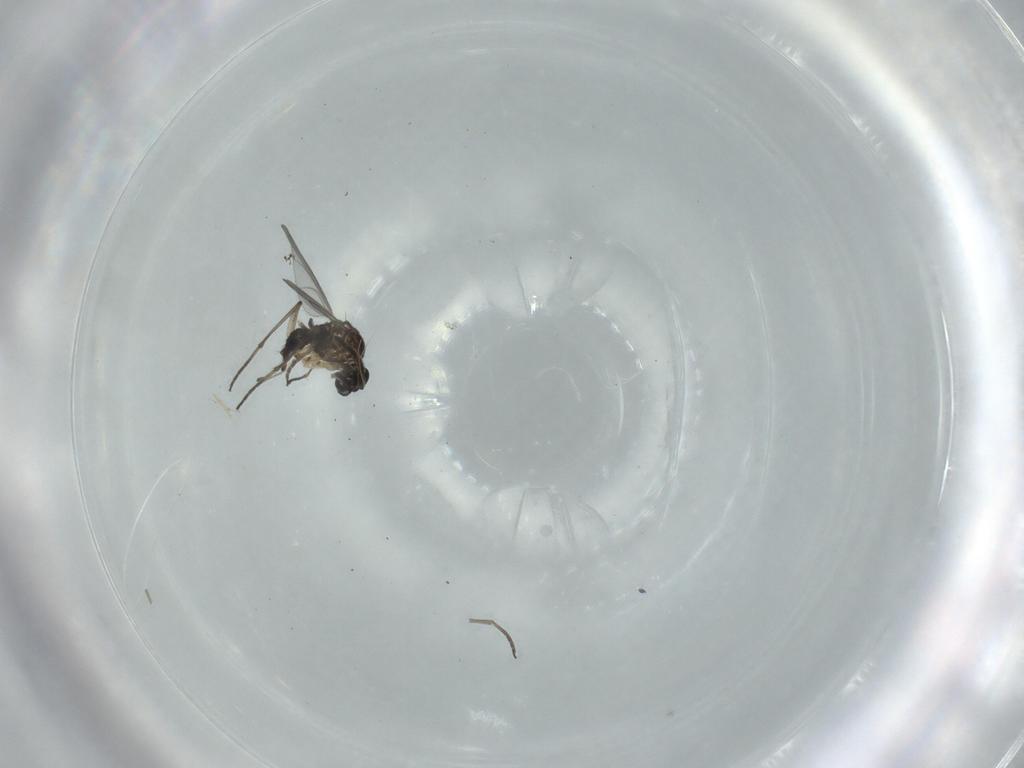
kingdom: Animalia
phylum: Arthropoda
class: Insecta
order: Diptera
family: Sciaridae
